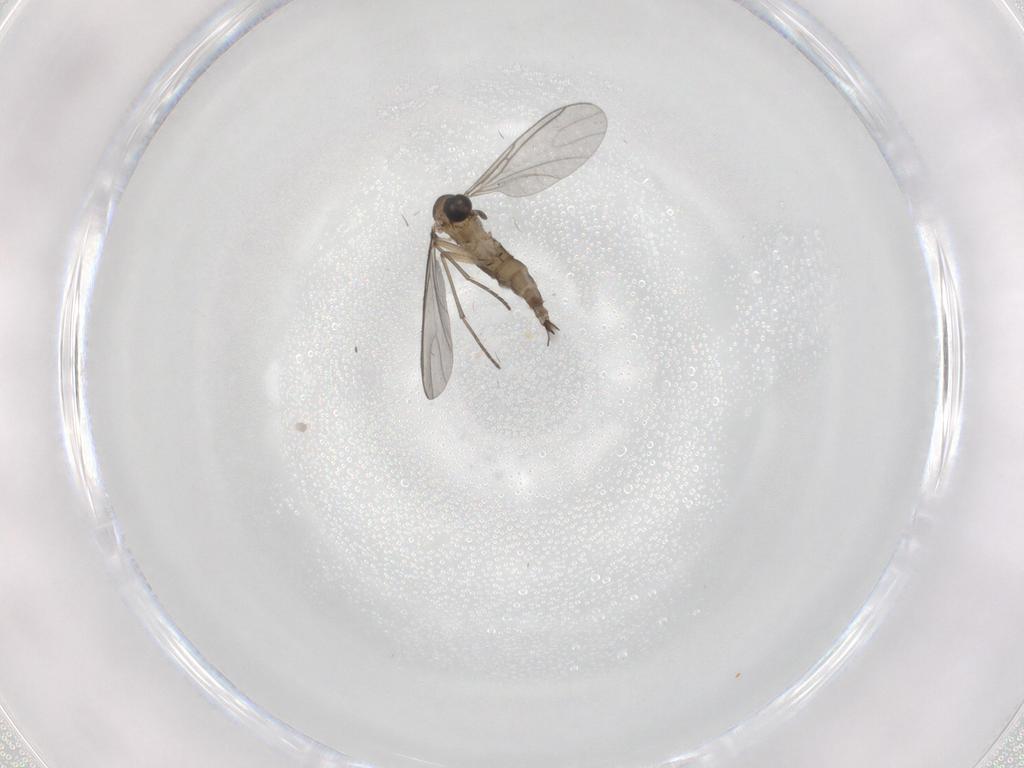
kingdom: Animalia
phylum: Arthropoda
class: Insecta
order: Diptera
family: Sciaridae
